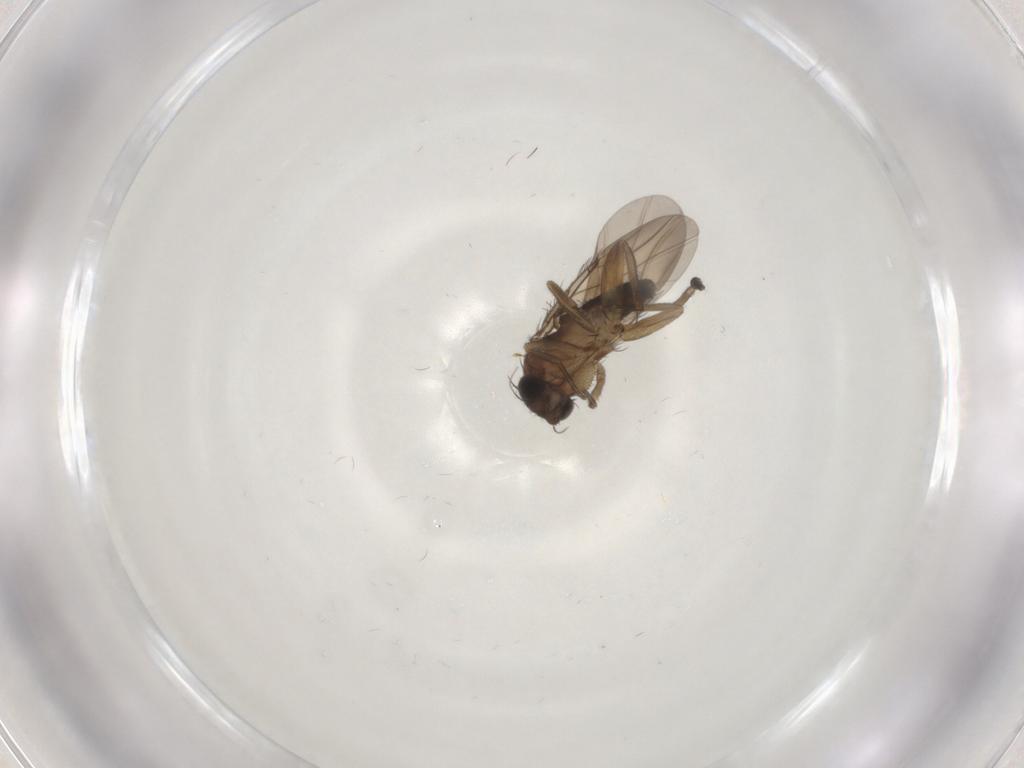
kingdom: Animalia
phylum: Arthropoda
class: Insecta
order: Diptera
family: Phoridae
